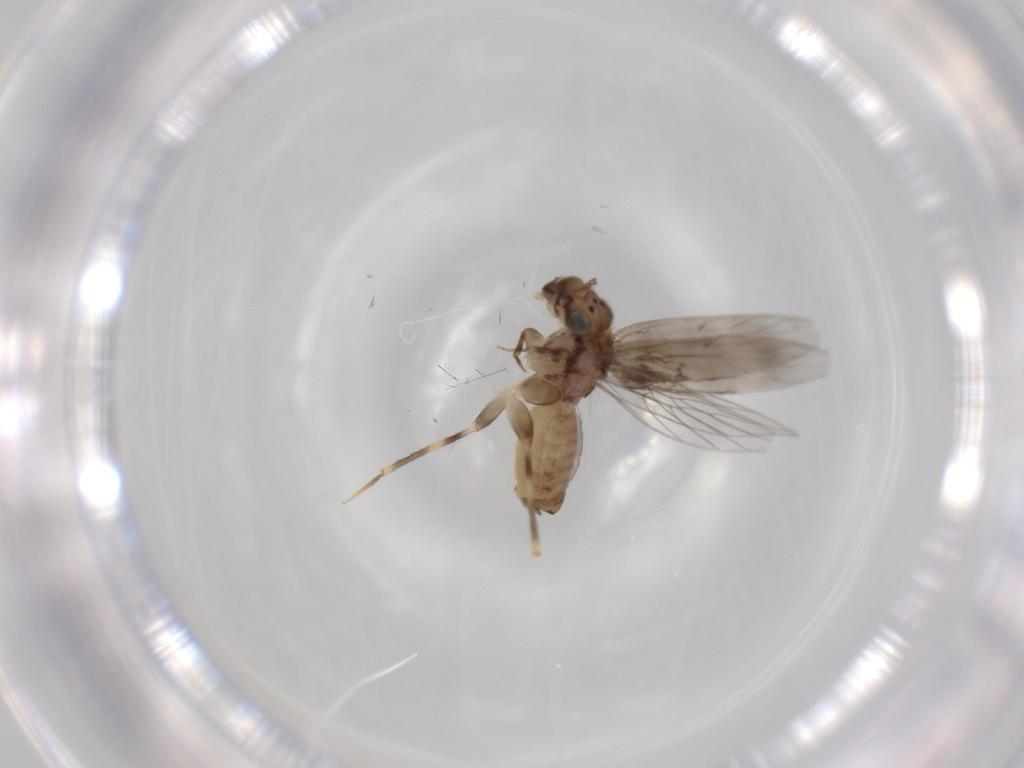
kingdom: Animalia
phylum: Arthropoda
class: Insecta
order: Psocodea
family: Lepidopsocidae
